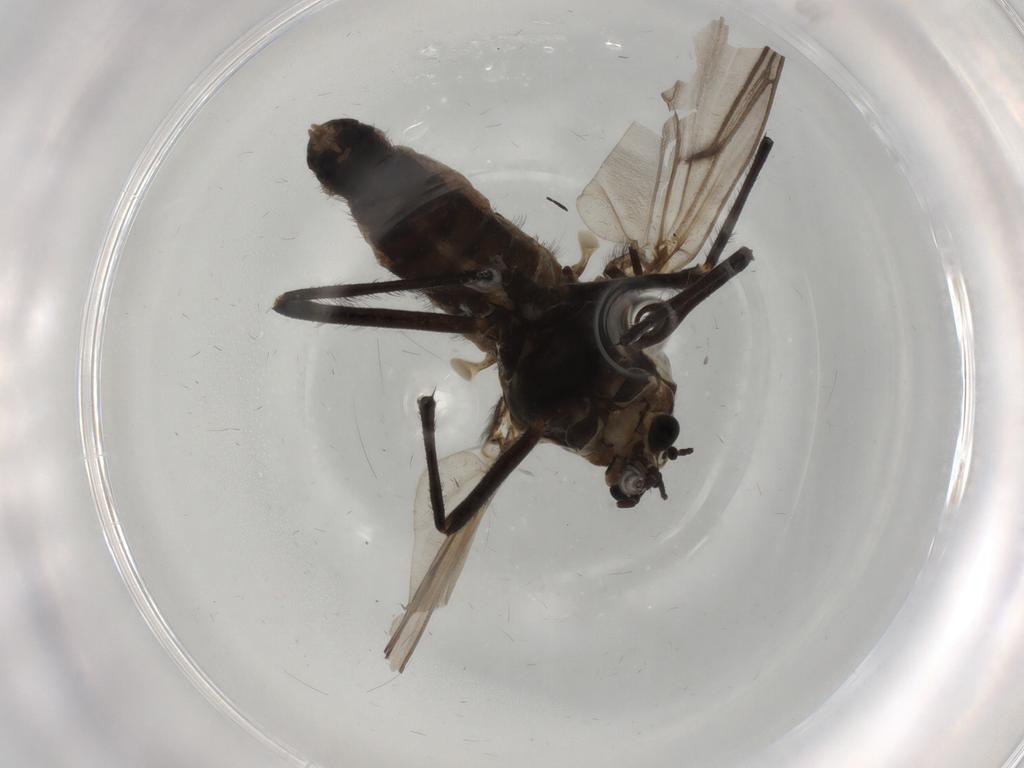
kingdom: Animalia
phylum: Arthropoda
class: Insecta
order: Diptera
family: Chironomidae
